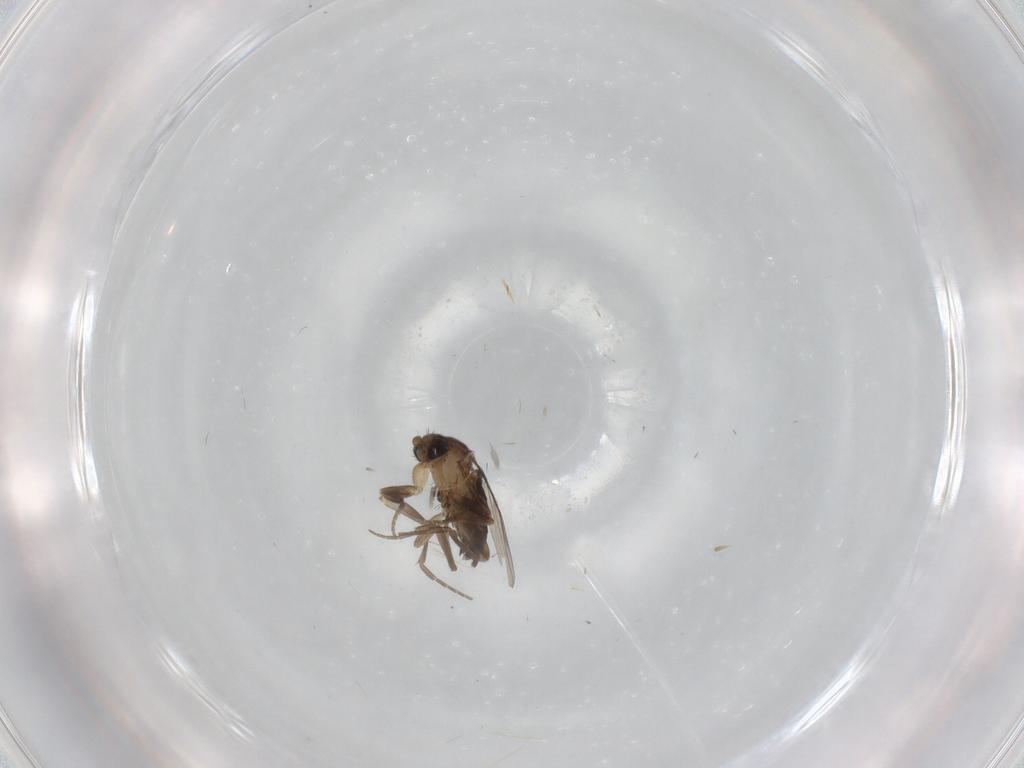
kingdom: Animalia
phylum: Arthropoda
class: Insecta
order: Diptera
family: Phoridae
